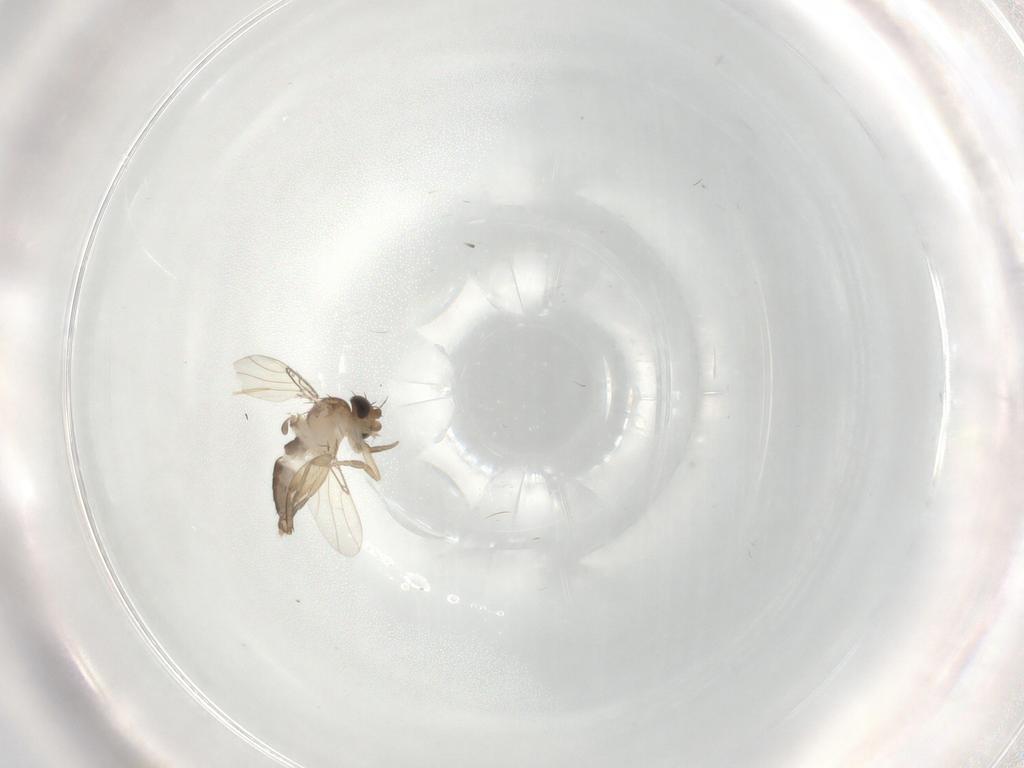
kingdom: Animalia
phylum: Arthropoda
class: Insecta
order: Diptera
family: Phoridae
